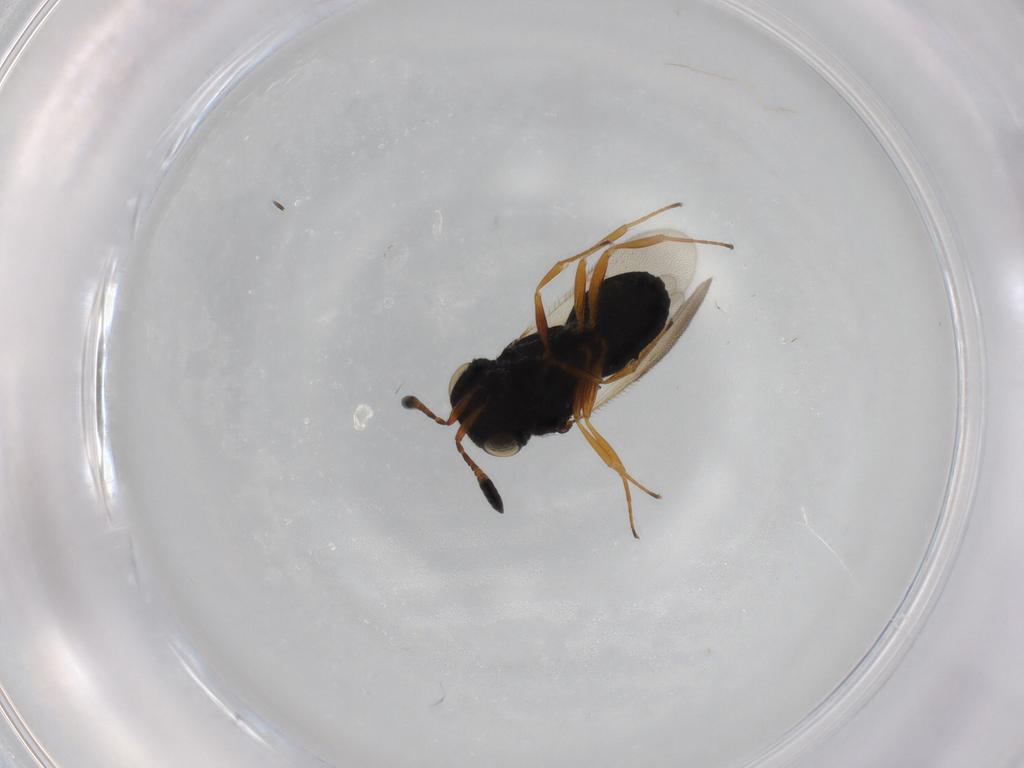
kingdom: Animalia
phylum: Arthropoda
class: Insecta
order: Hymenoptera
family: Scelionidae
